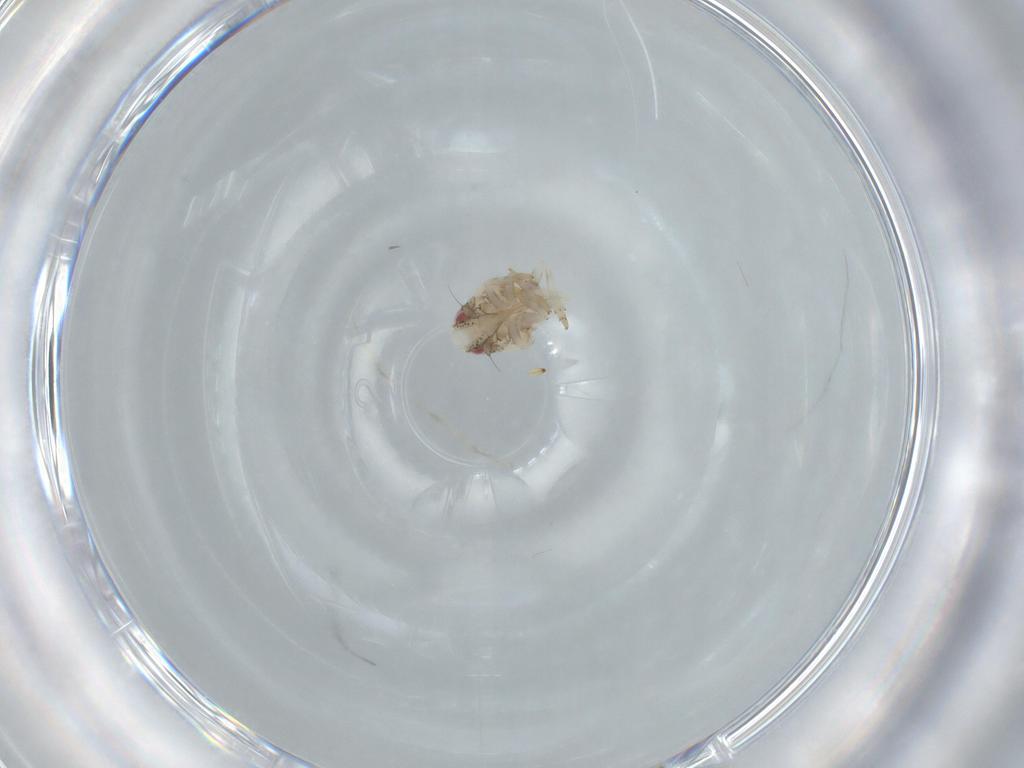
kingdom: Animalia
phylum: Arthropoda
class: Insecta
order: Hemiptera
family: Acanaloniidae
